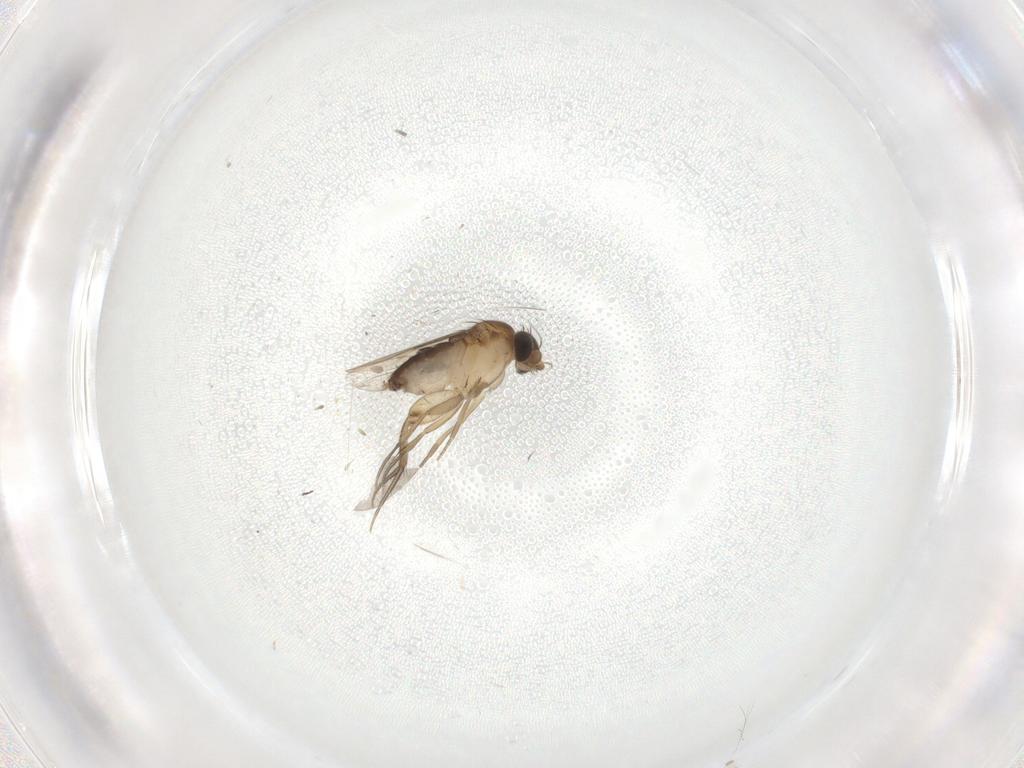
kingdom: Animalia
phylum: Arthropoda
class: Insecta
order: Diptera
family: Phoridae
